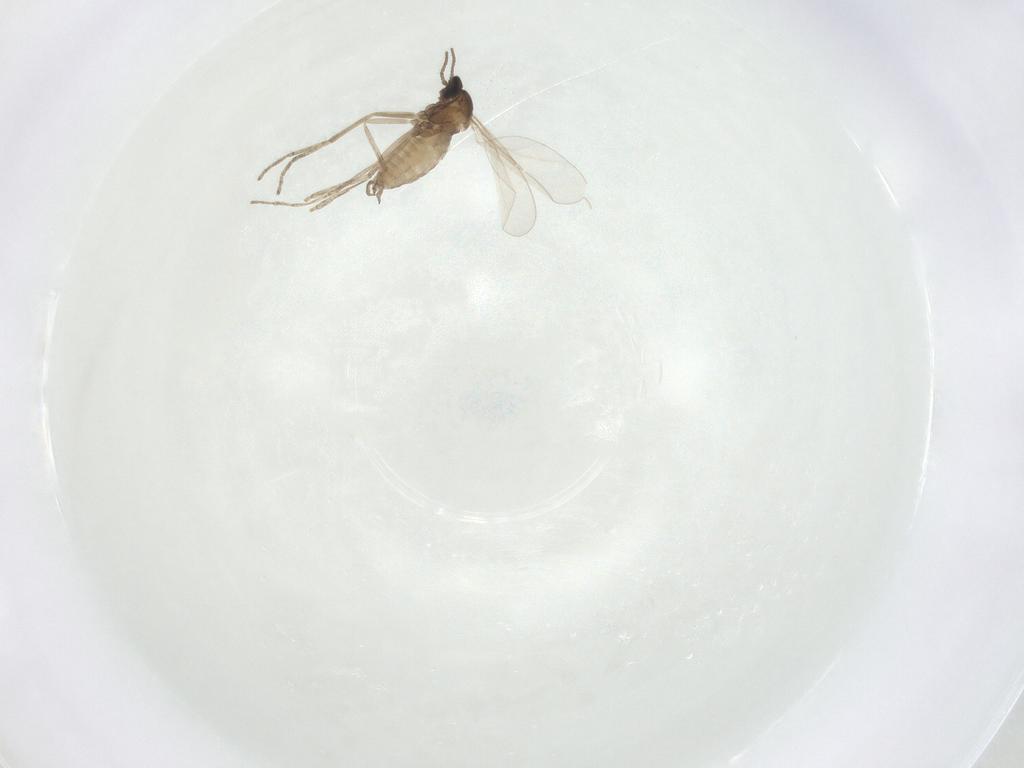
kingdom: Animalia
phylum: Arthropoda
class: Insecta
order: Diptera
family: Cecidomyiidae
